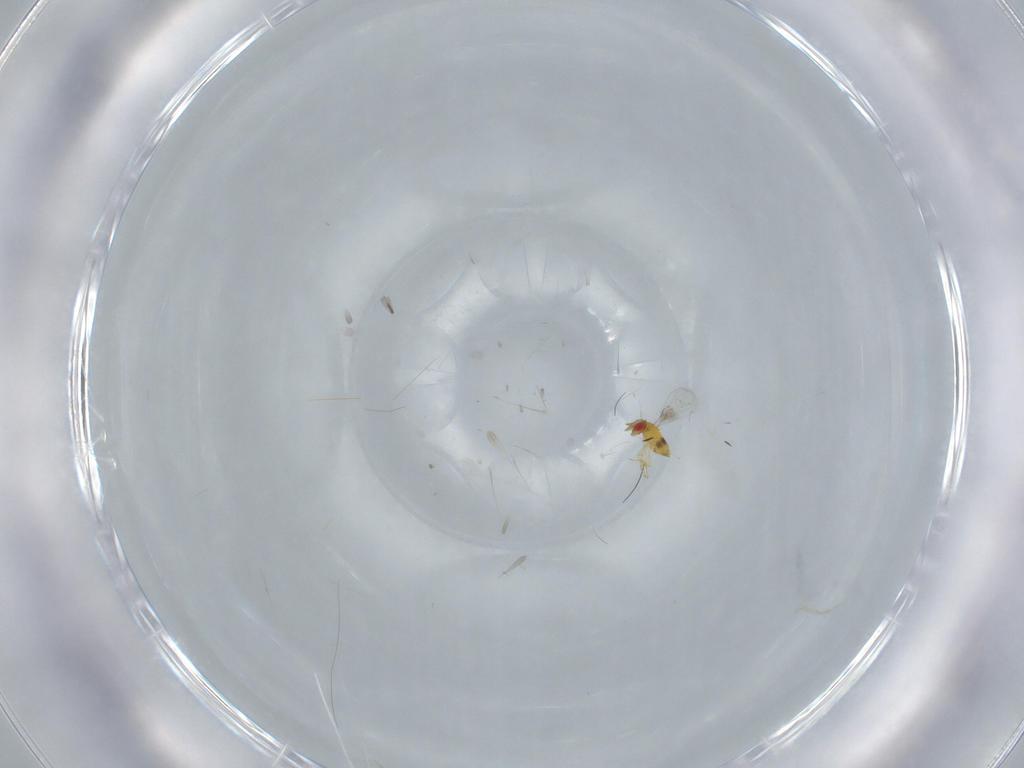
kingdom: Animalia
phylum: Arthropoda
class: Insecta
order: Hymenoptera
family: Trichogrammatidae
